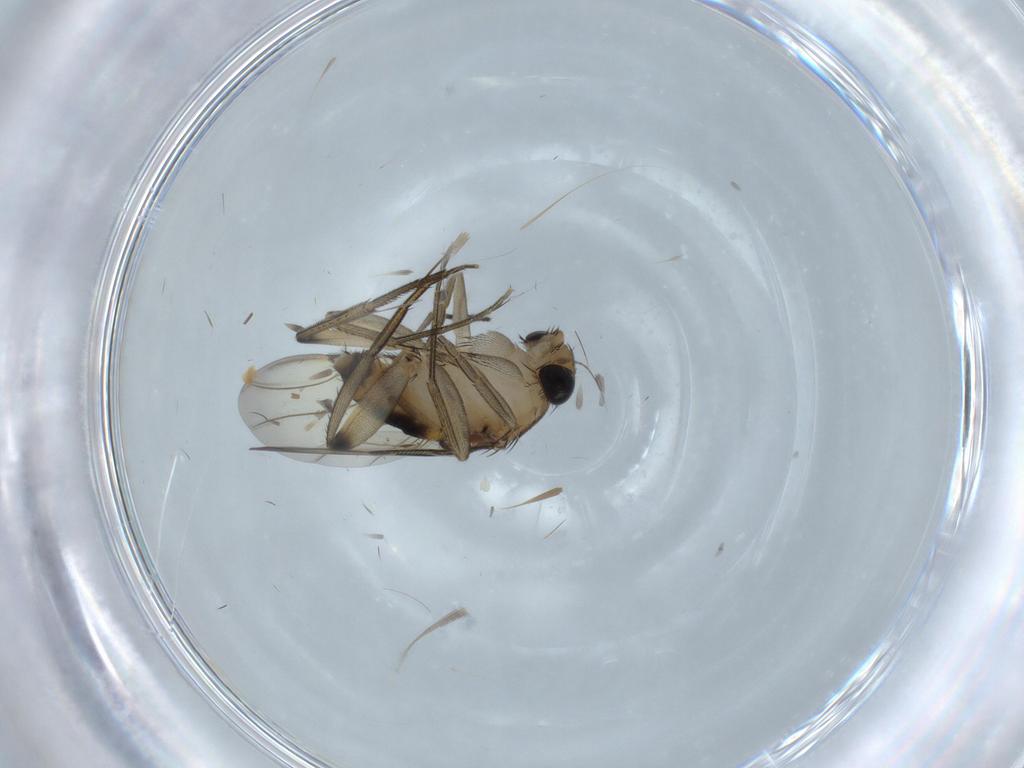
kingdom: Animalia
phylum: Arthropoda
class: Insecta
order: Diptera
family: Phoridae
